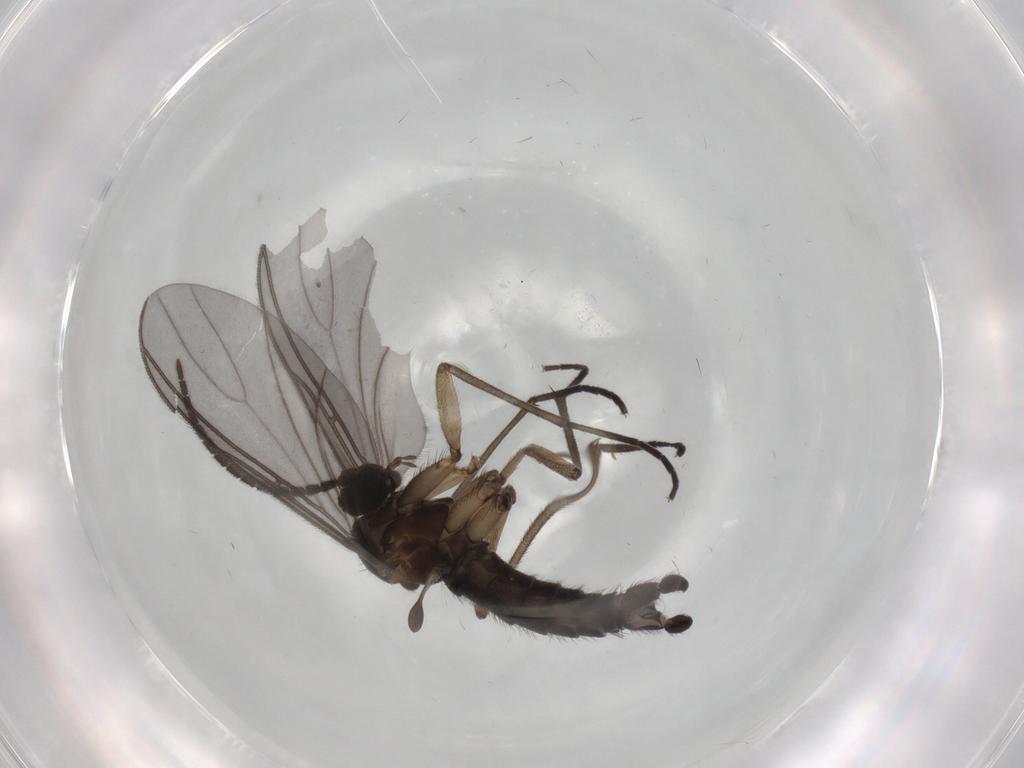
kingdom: Animalia
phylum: Arthropoda
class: Insecta
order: Diptera
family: Sciaridae
